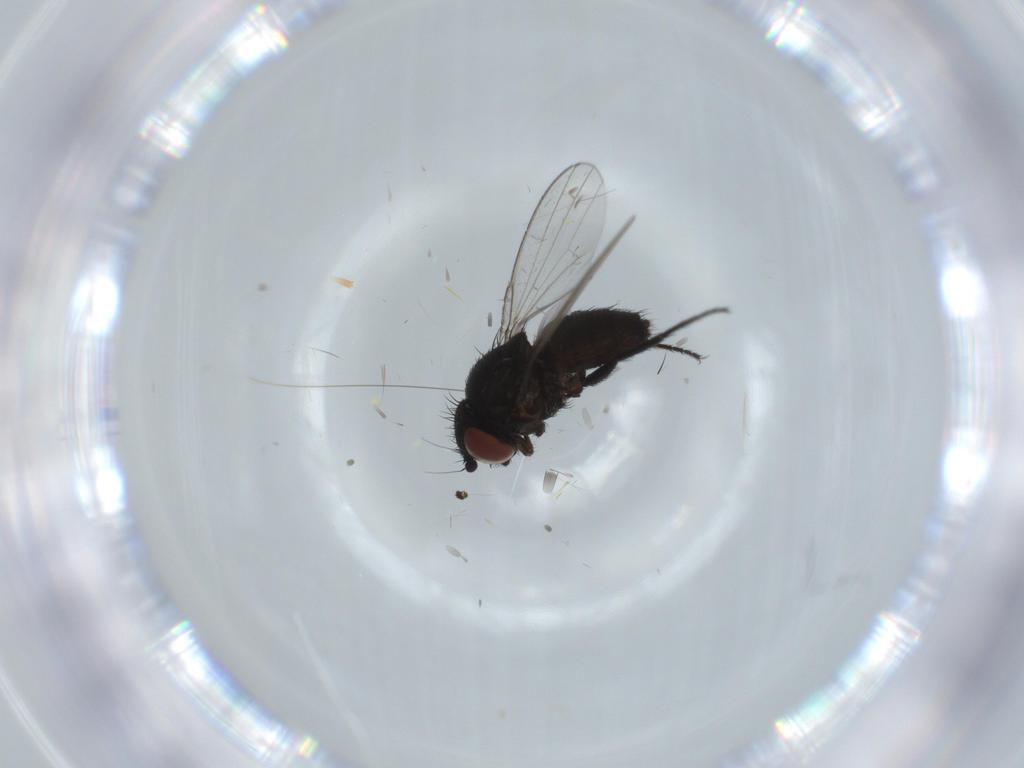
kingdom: Animalia
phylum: Arthropoda
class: Insecta
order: Diptera
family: Milichiidae
